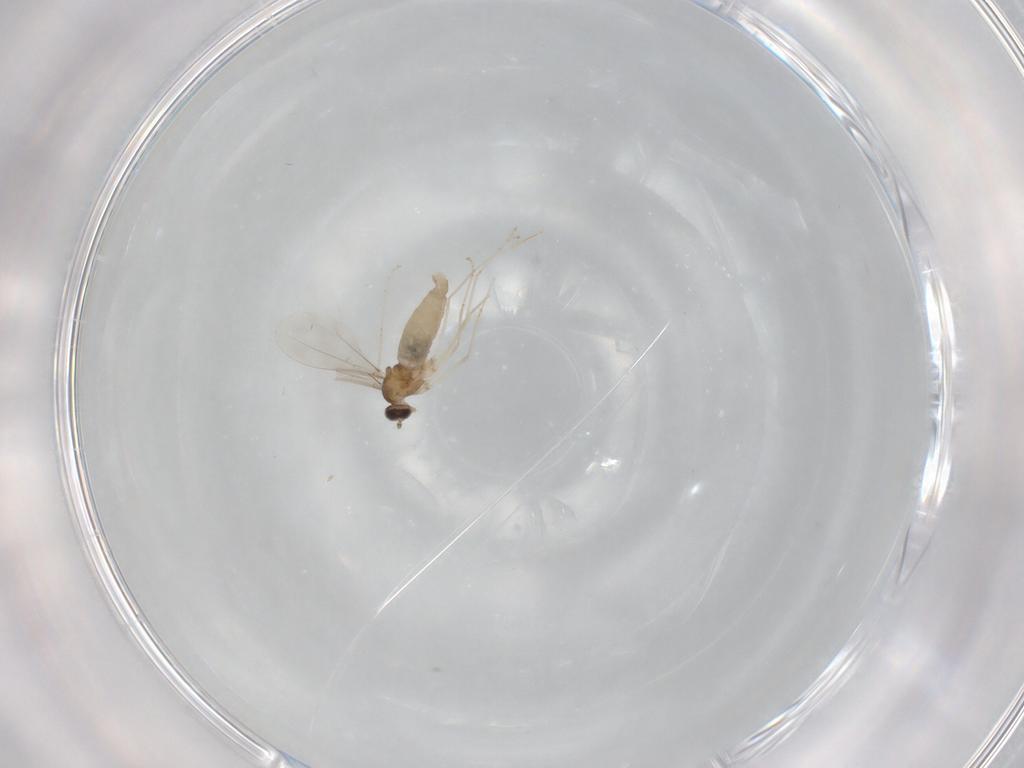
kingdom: Animalia
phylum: Arthropoda
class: Insecta
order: Diptera
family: Cecidomyiidae
